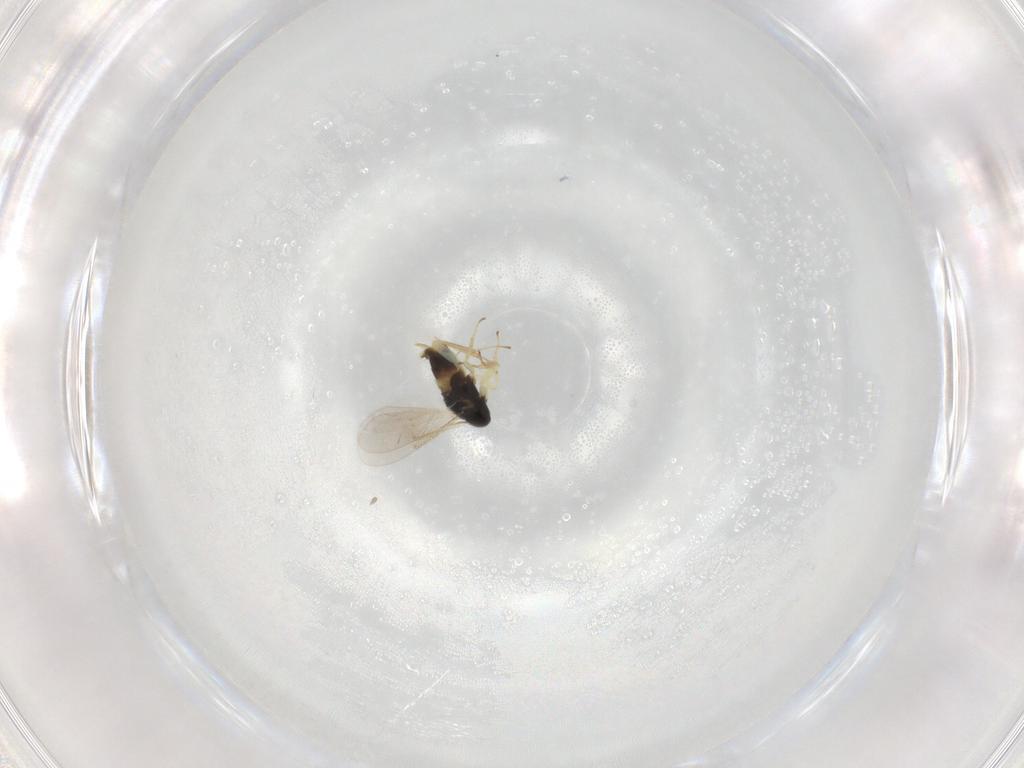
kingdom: Animalia
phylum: Arthropoda
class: Insecta
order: Hymenoptera
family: Aphelinidae
